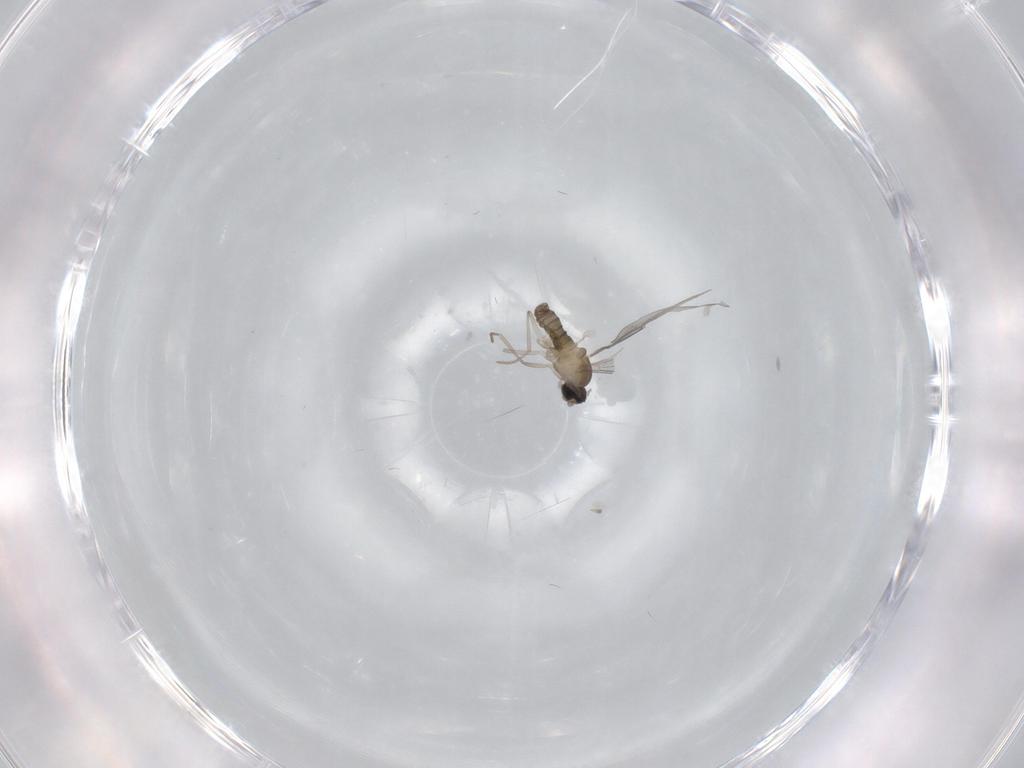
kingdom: Animalia
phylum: Arthropoda
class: Insecta
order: Diptera
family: Cecidomyiidae
